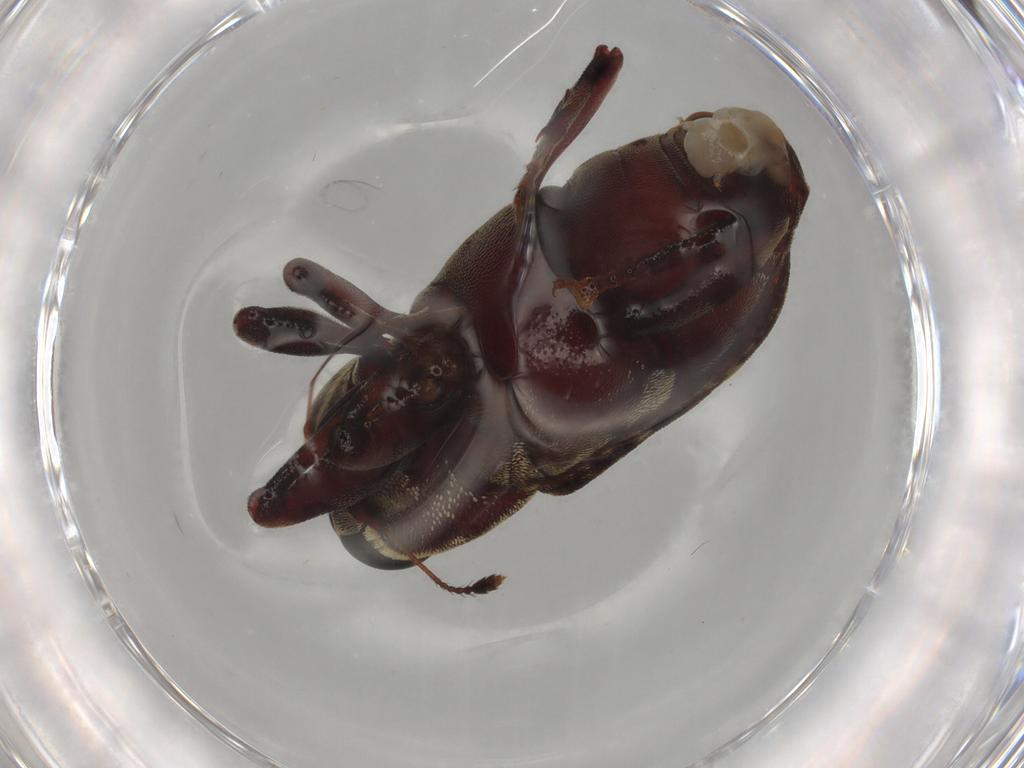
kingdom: Animalia
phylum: Arthropoda
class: Insecta
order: Coleoptera
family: Curculionidae
